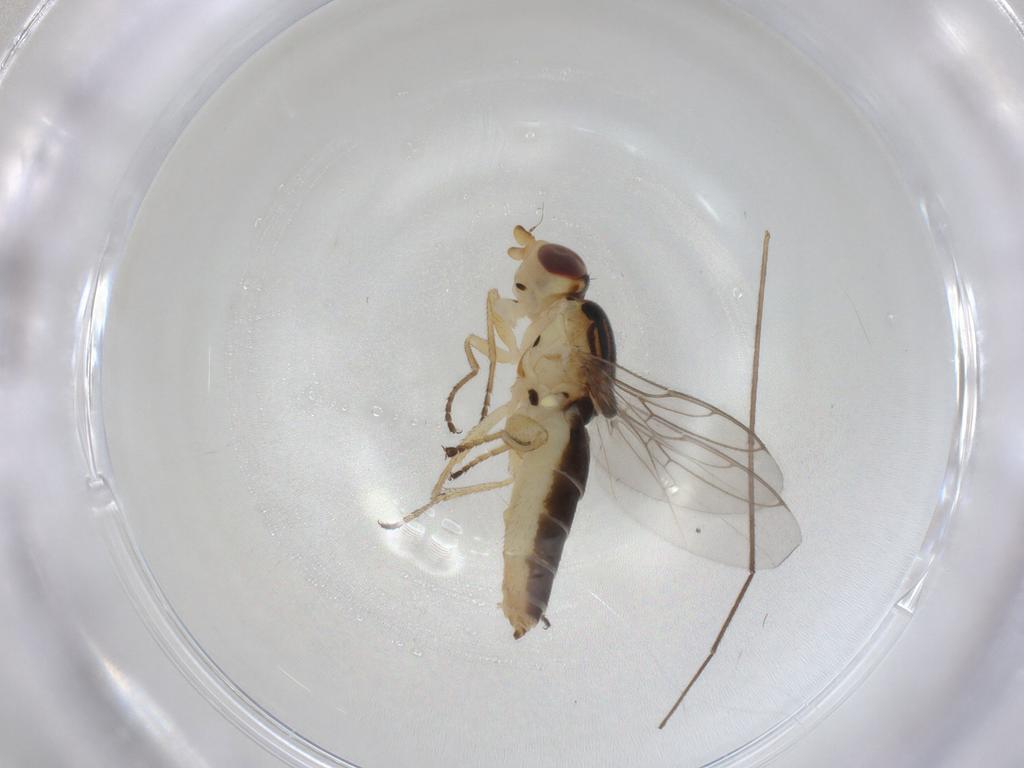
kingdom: Animalia
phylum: Arthropoda
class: Insecta
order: Diptera
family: Chloropidae
